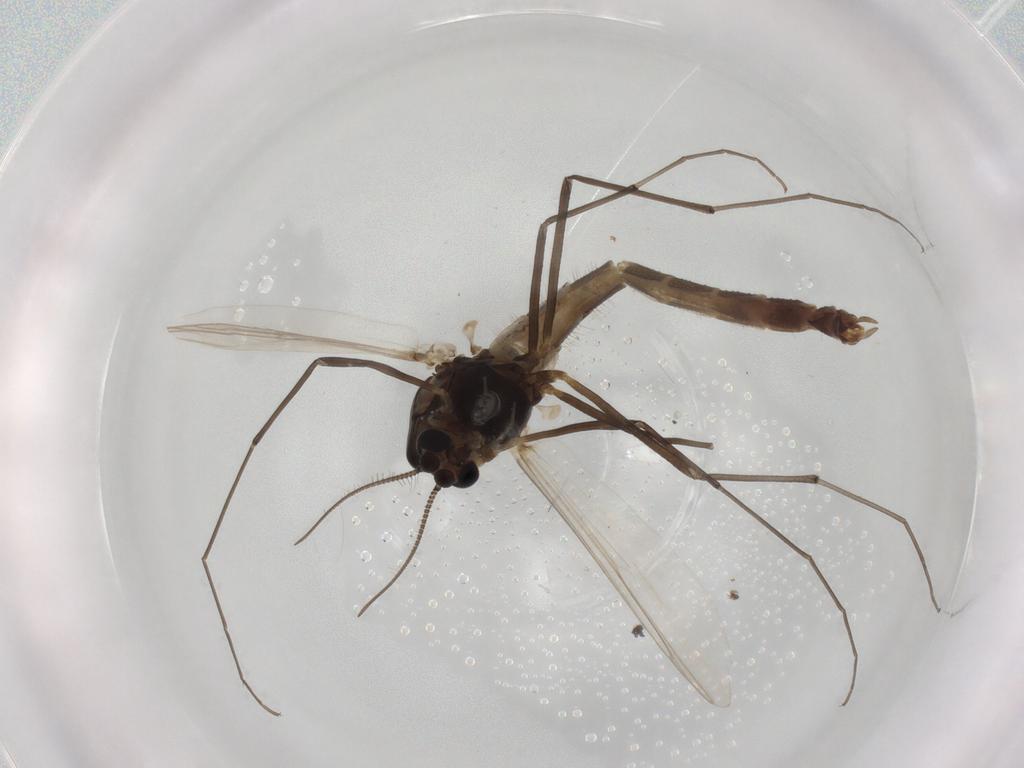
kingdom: Animalia
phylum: Arthropoda
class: Insecta
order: Diptera
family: Chironomidae
